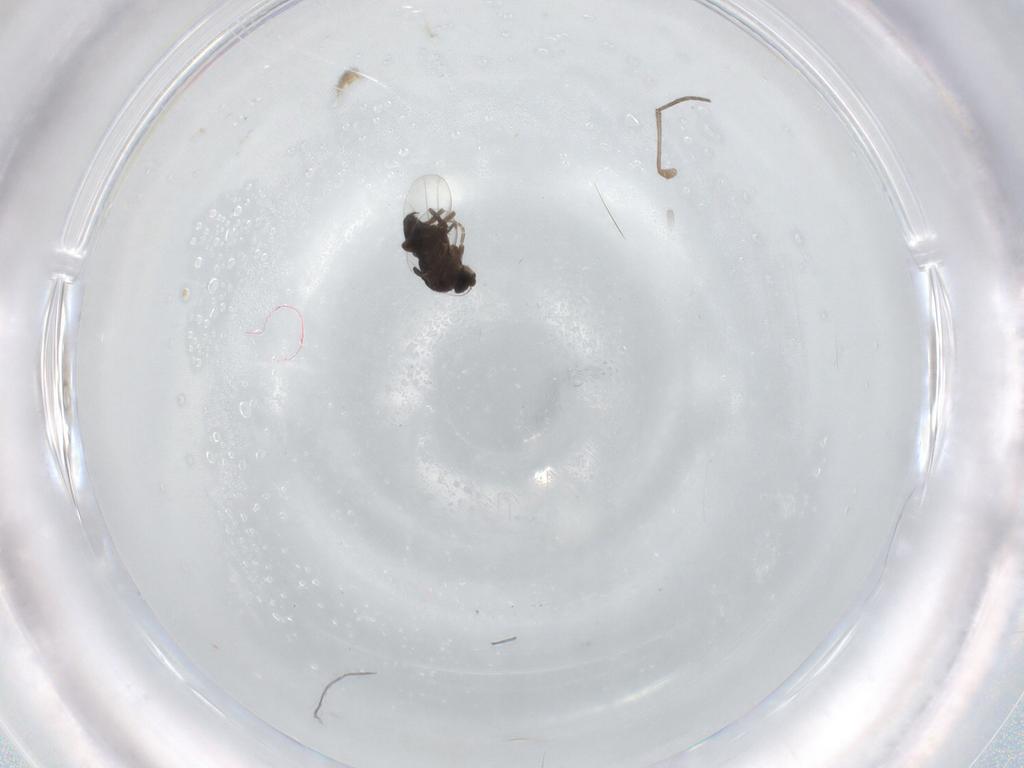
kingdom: Animalia
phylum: Arthropoda
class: Insecta
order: Diptera
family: Phoridae
